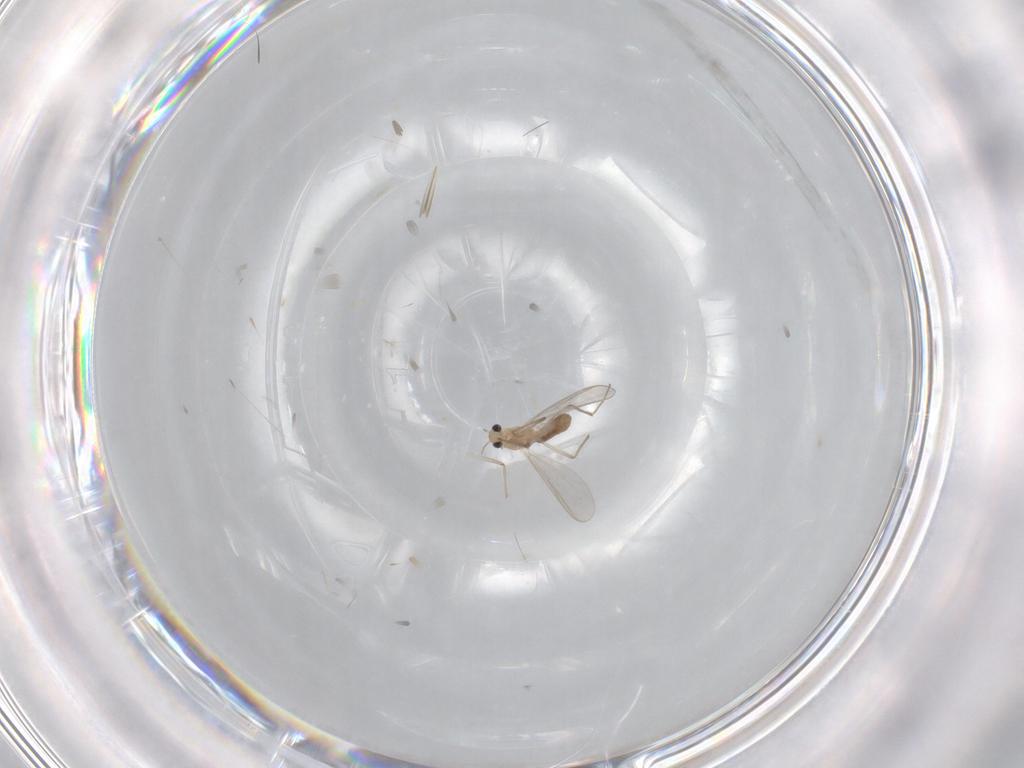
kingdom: Animalia
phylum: Arthropoda
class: Insecta
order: Diptera
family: Chironomidae
